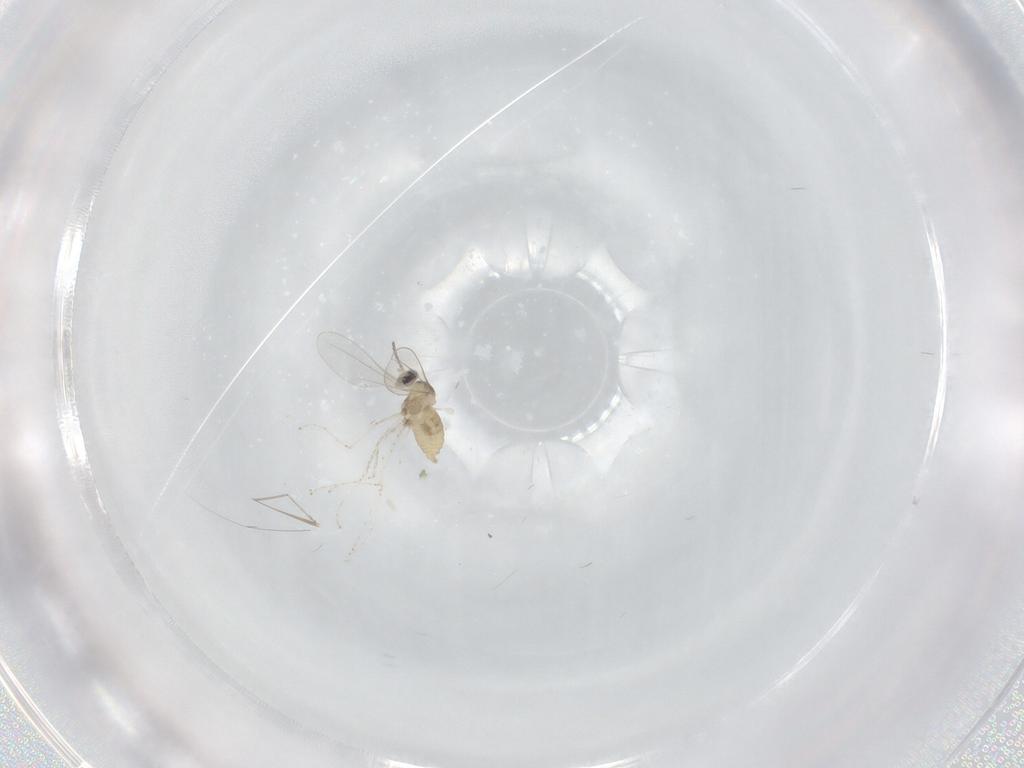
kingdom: Animalia
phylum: Arthropoda
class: Insecta
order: Diptera
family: Cecidomyiidae
